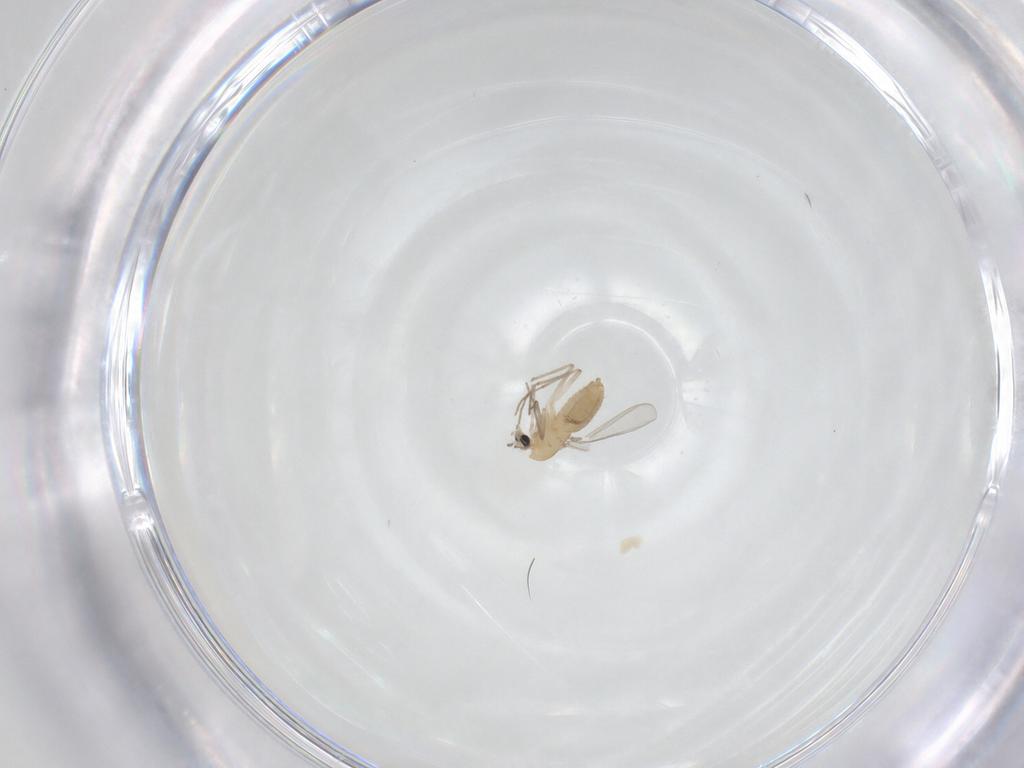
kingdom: Animalia
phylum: Arthropoda
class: Insecta
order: Diptera
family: Chironomidae
